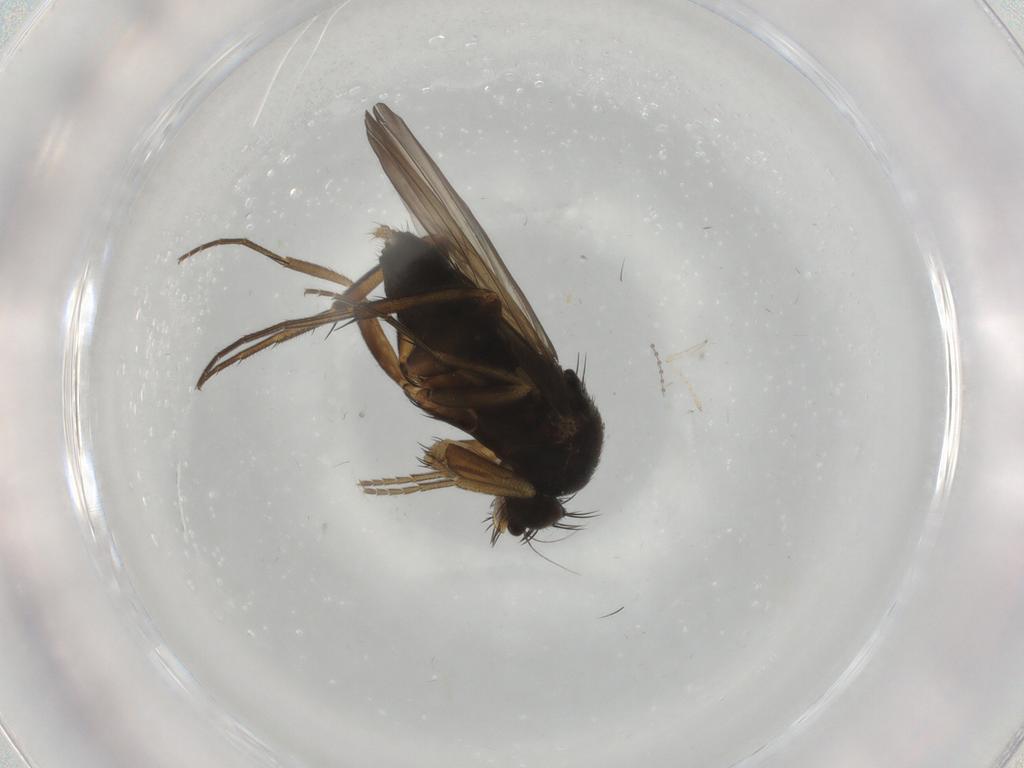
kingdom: Animalia
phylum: Arthropoda
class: Insecta
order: Diptera
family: Phoridae
